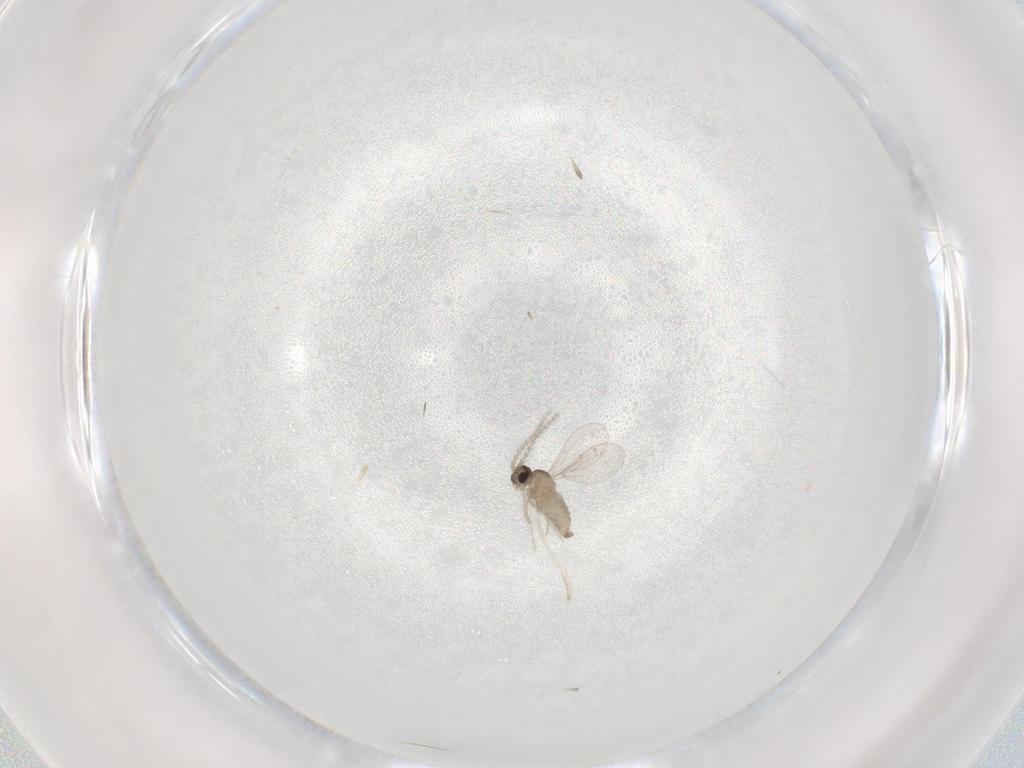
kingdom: Animalia
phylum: Arthropoda
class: Insecta
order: Diptera
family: Cecidomyiidae
